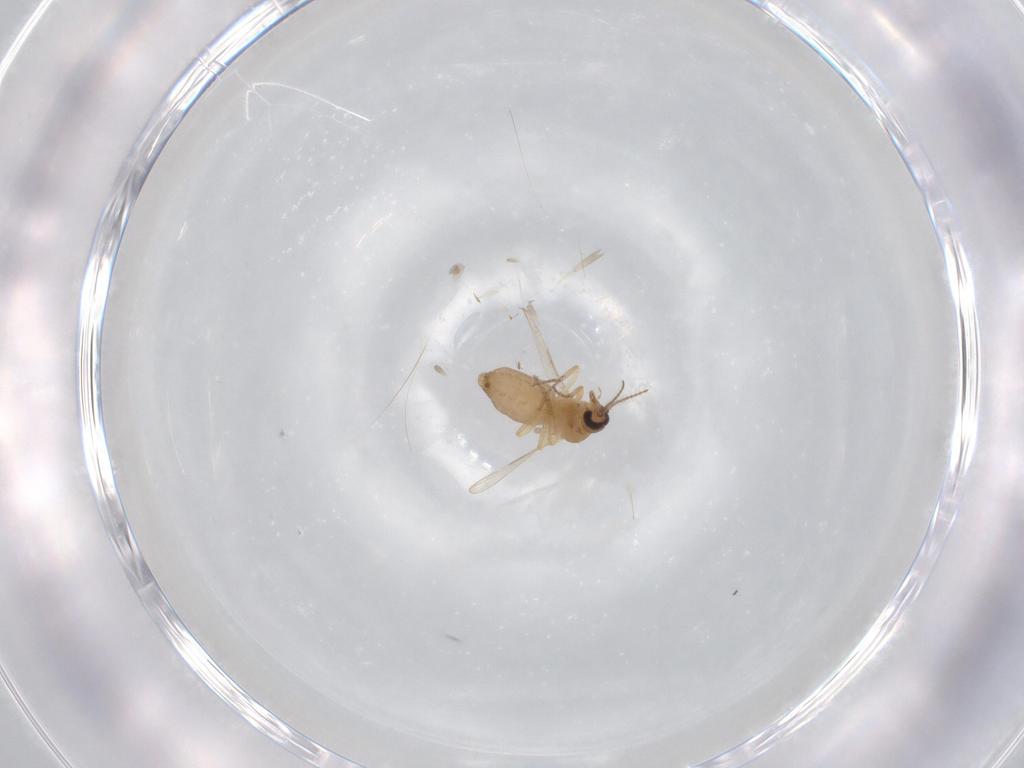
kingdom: Animalia
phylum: Arthropoda
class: Insecta
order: Diptera
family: Ceratopogonidae
